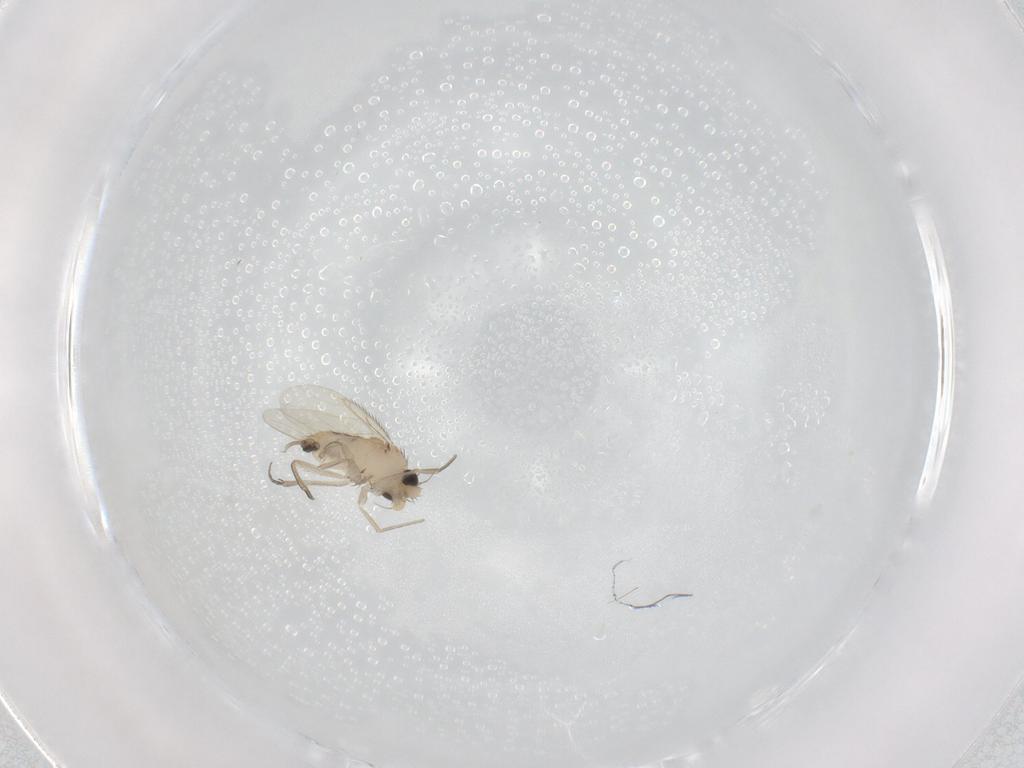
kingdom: Animalia
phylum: Arthropoda
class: Insecta
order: Diptera
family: Phoridae
